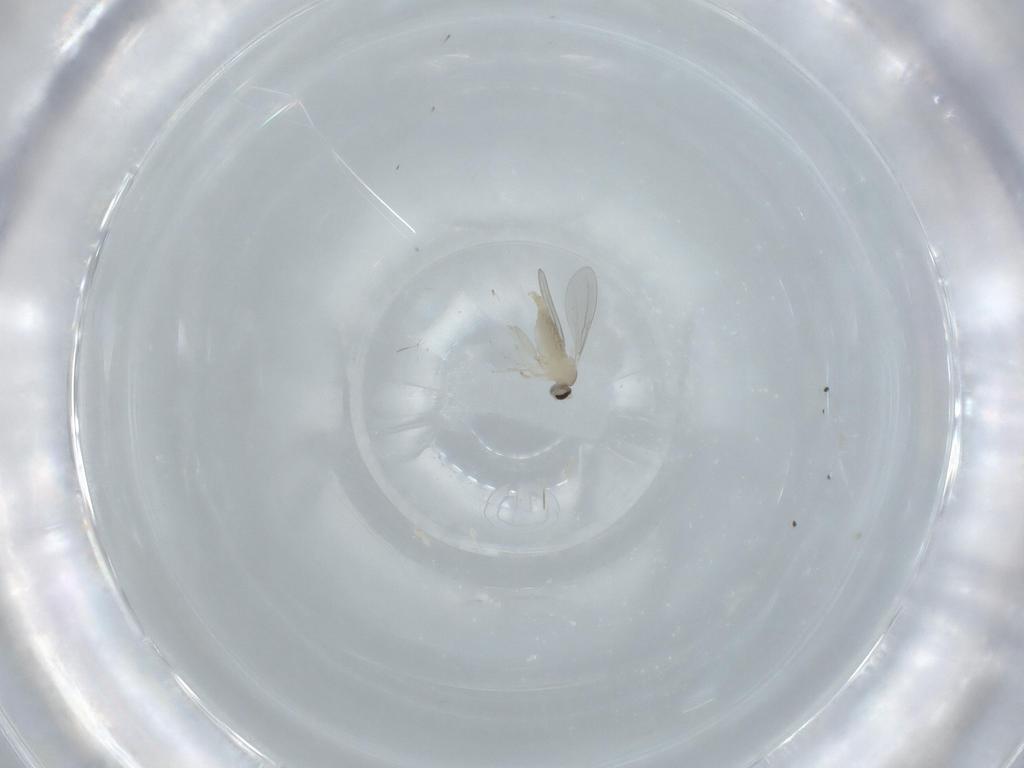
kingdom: Animalia
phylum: Arthropoda
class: Insecta
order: Diptera
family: Ephydridae
